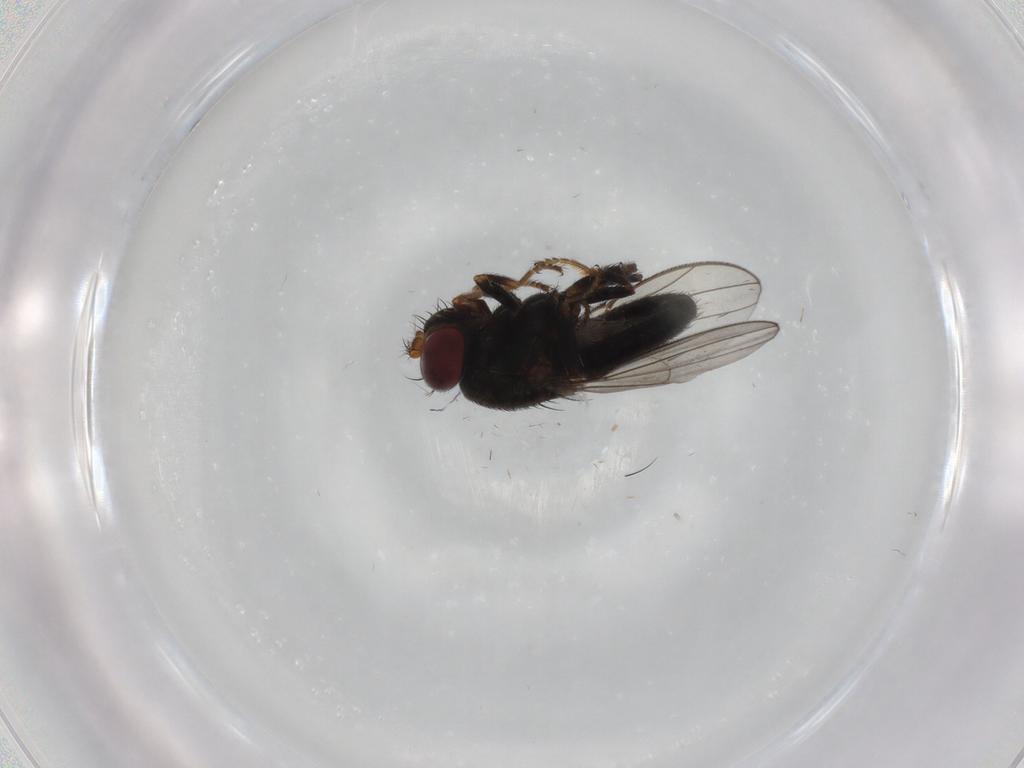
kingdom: Animalia
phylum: Arthropoda
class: Insecta
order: Diptera
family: Ephydridae
